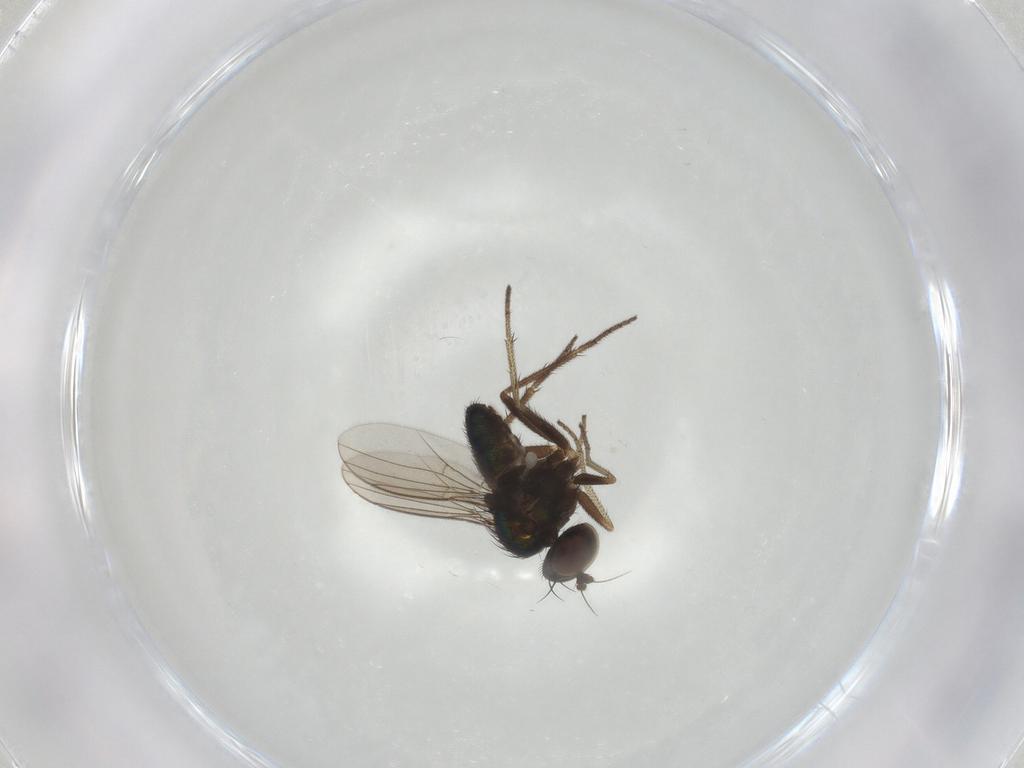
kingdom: Animalia
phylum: Arthropoda
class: Insecta
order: Diptera
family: Dolichopodidae
